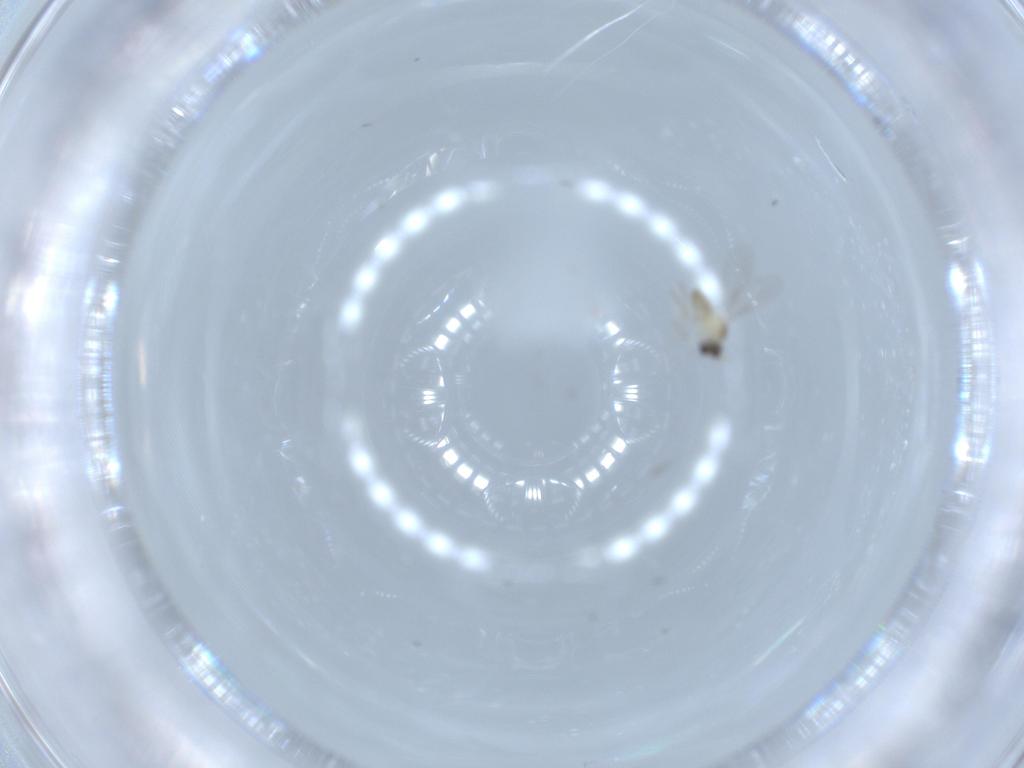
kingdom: Animalia
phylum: Arthropoda
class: Insecta
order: Diptera
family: Cecidomyiidae
